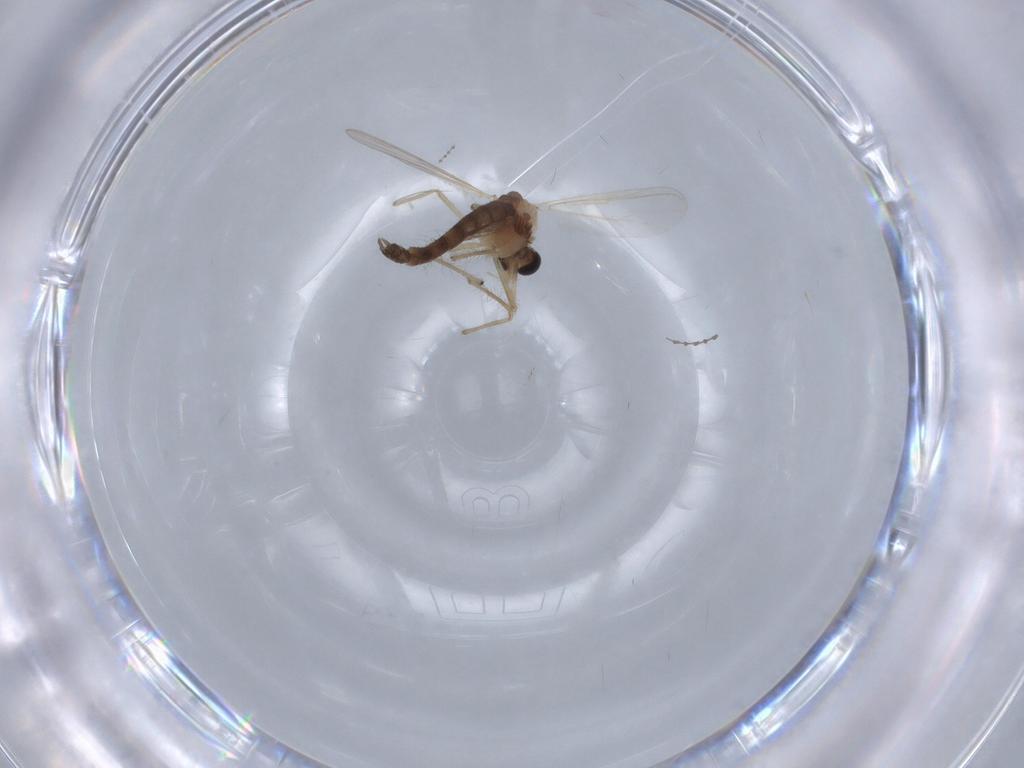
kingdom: Animalia
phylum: Arthropoda
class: Insecta
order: Diptera
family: Chironomidae
